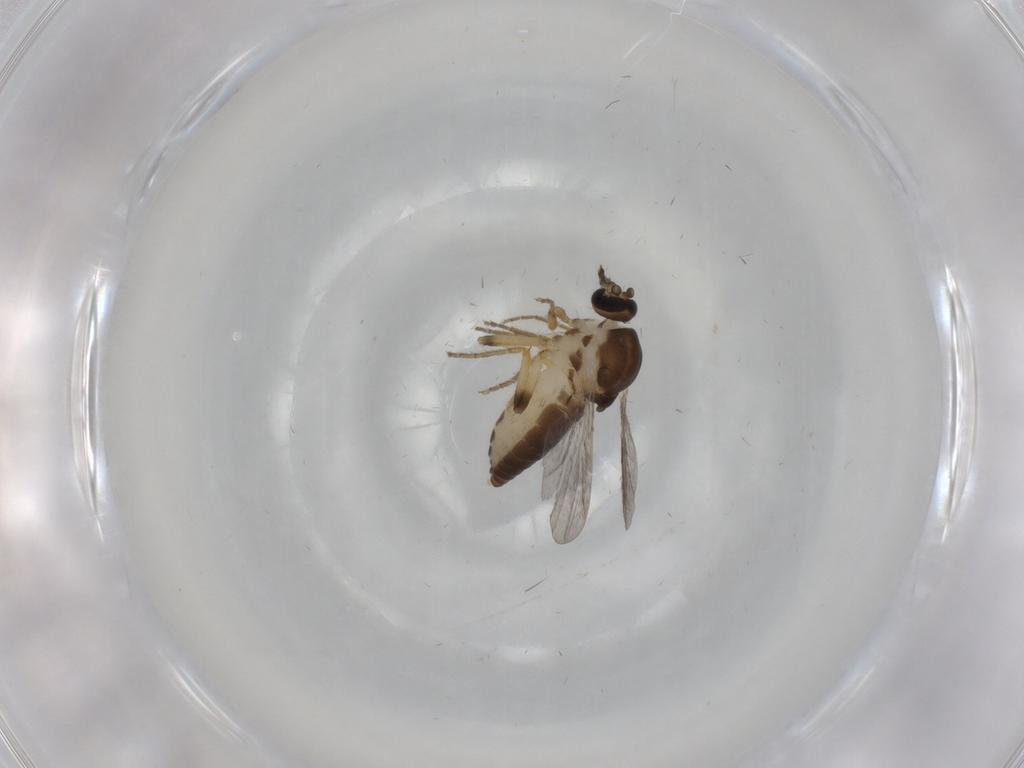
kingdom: Animalia
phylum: Arthropoda
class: Insecta
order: Diptera
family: Ceratopogonidae
